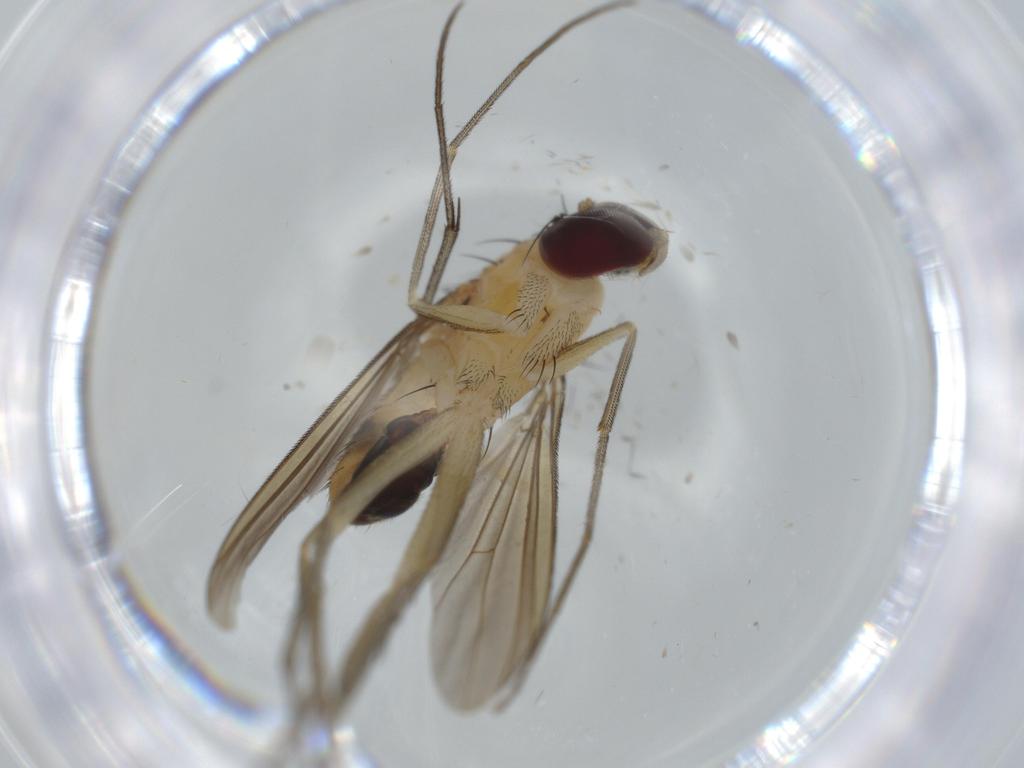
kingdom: Animalia
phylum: Arthropoda
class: Insecta
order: Diptera
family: Dolichopodidae
